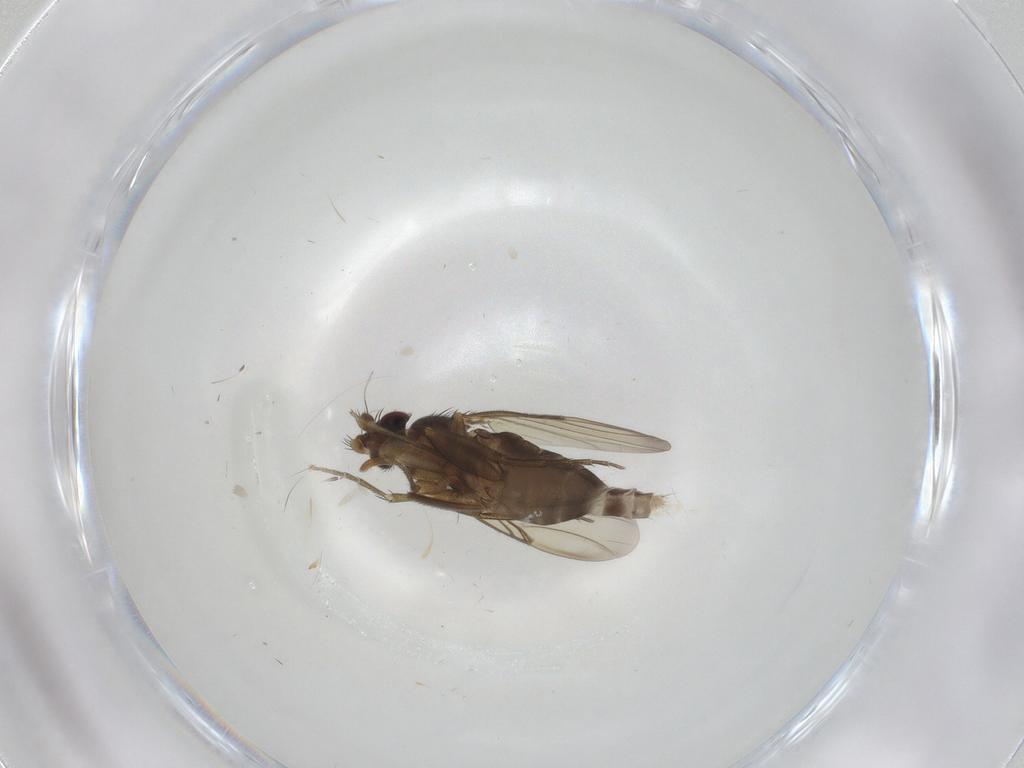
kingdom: Animalia
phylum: Arthropoda
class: Insecta
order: Diptera
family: Phoridae
